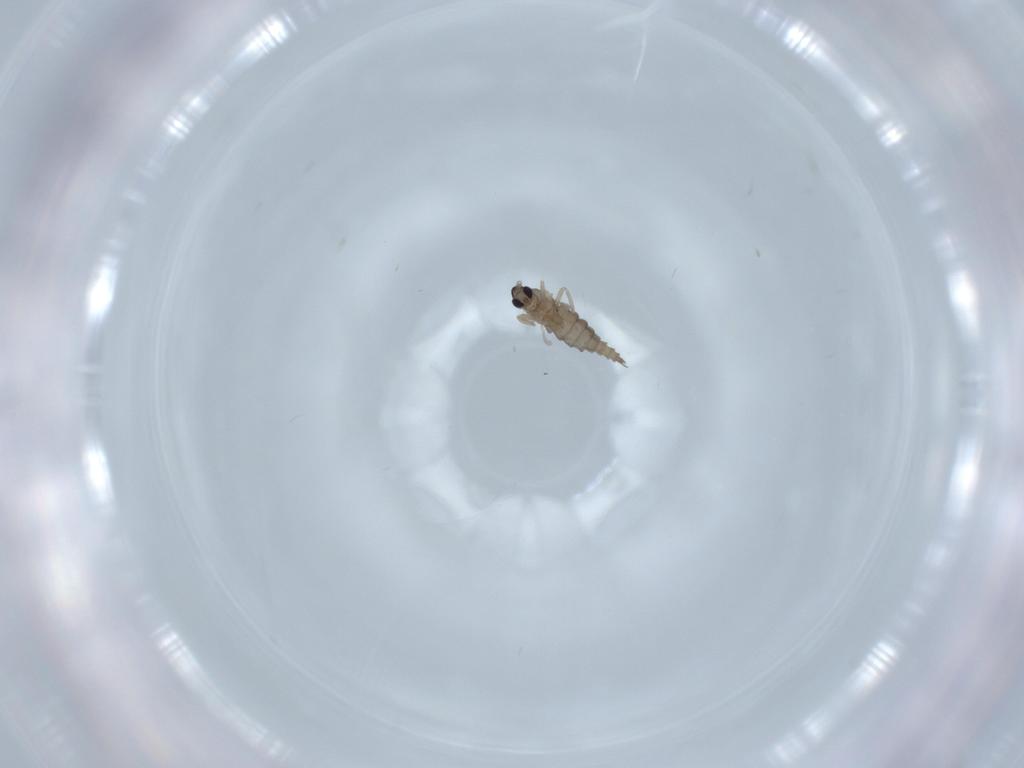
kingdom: Animalia
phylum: Arthropoda
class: Insecta
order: Diptera
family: Cecidomyiidae
